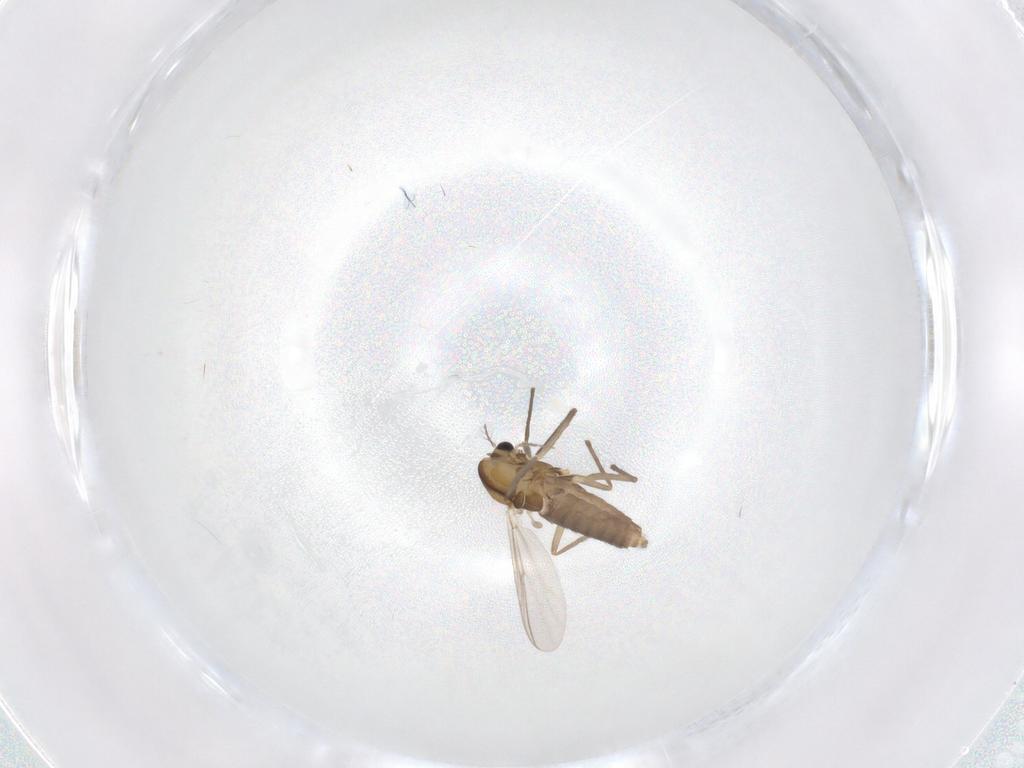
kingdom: Animalia
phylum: Arthropoda
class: Insecta
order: Diptera
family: Chironomidae
